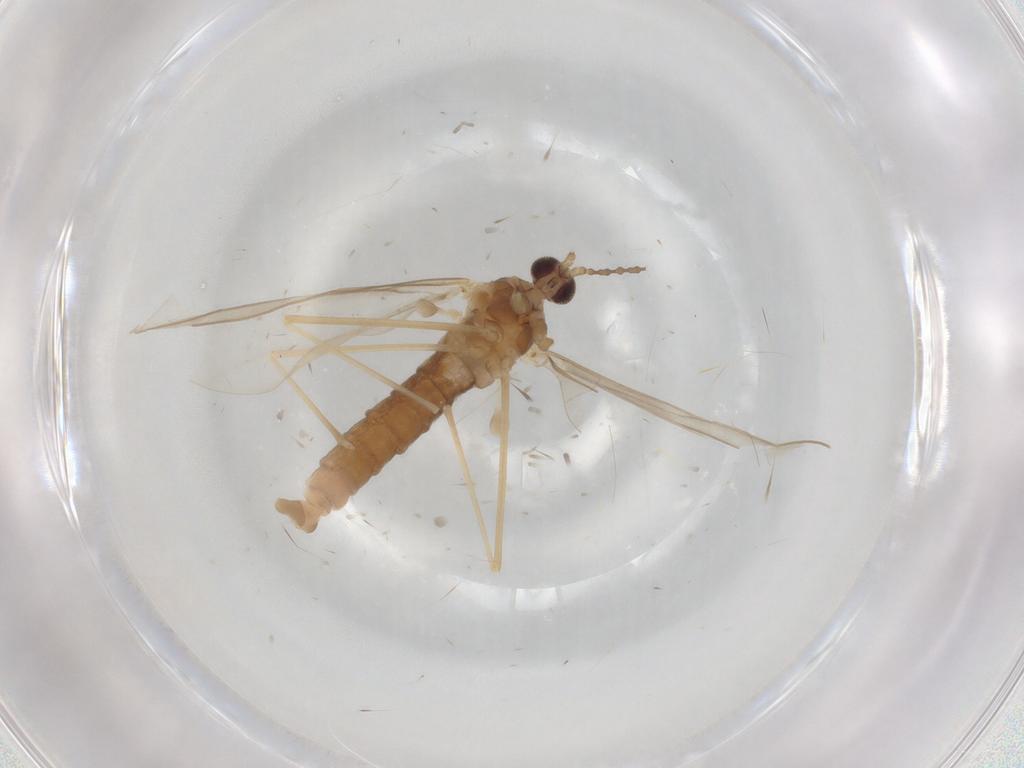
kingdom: Animalia
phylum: Arthropoda
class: Insecta
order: Diptera
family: Cecidomyiidae
